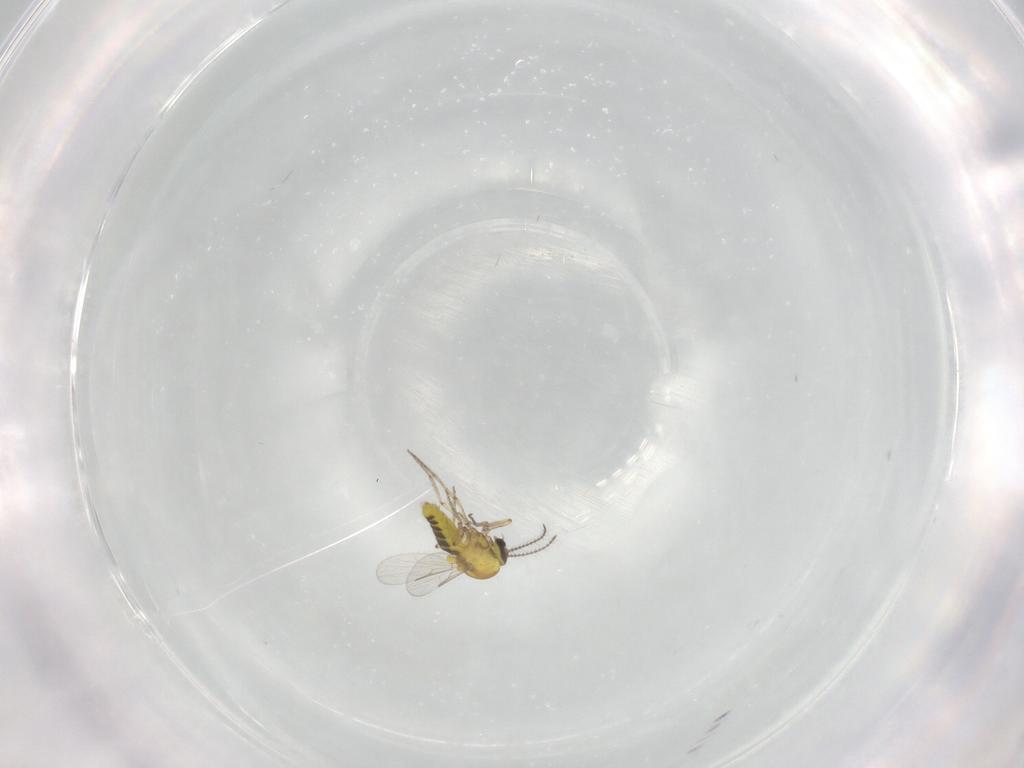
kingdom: Animalia
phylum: Arthropoda
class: Insecta
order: Diptera
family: Ceratopogonidae
